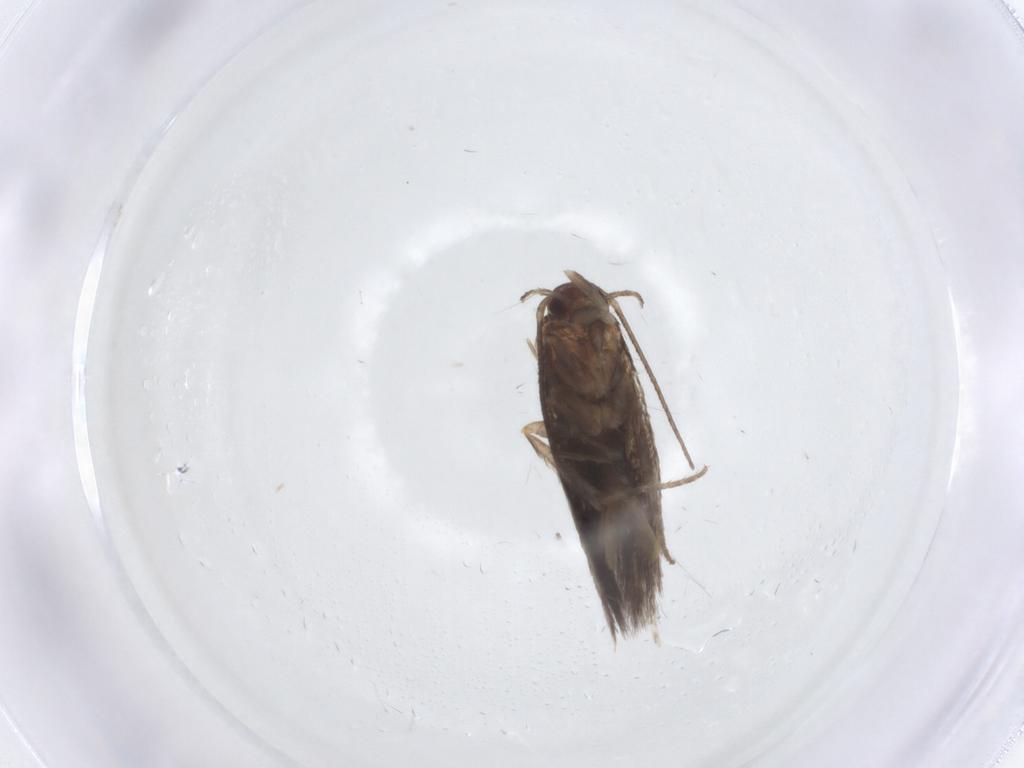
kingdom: Animalia
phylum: Arthropoda
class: Insecta
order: Lepidoptera
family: Elachistidae
